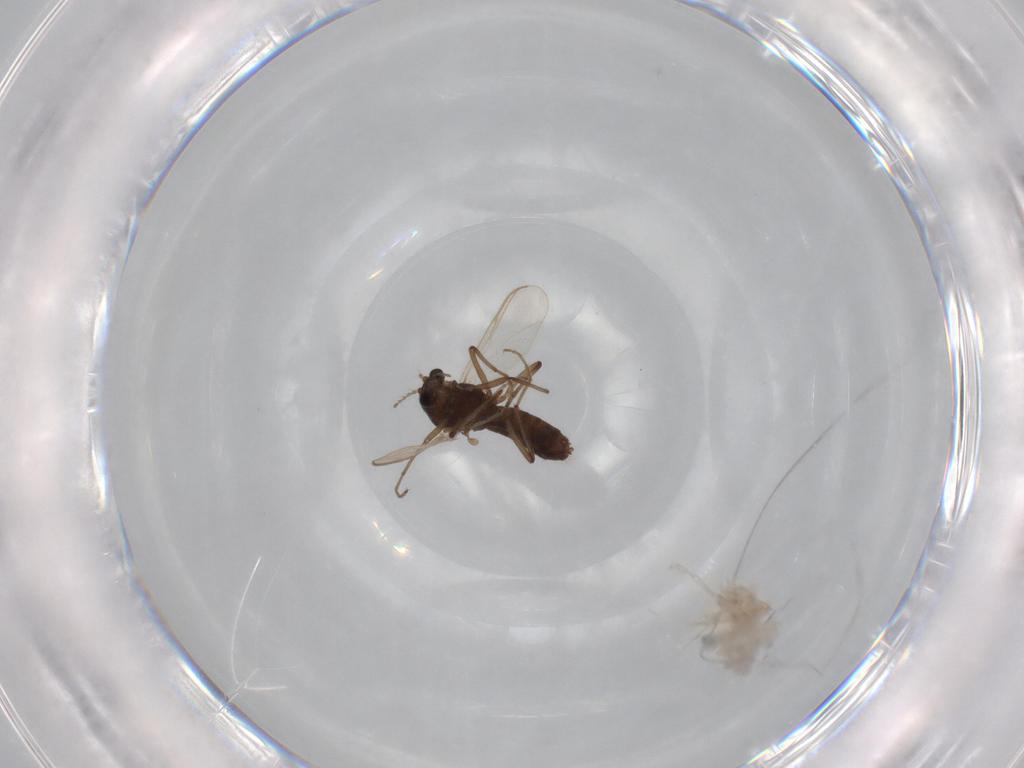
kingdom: Animalia
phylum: Arthropoda
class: Insecta
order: Diptera
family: Chironomidae
